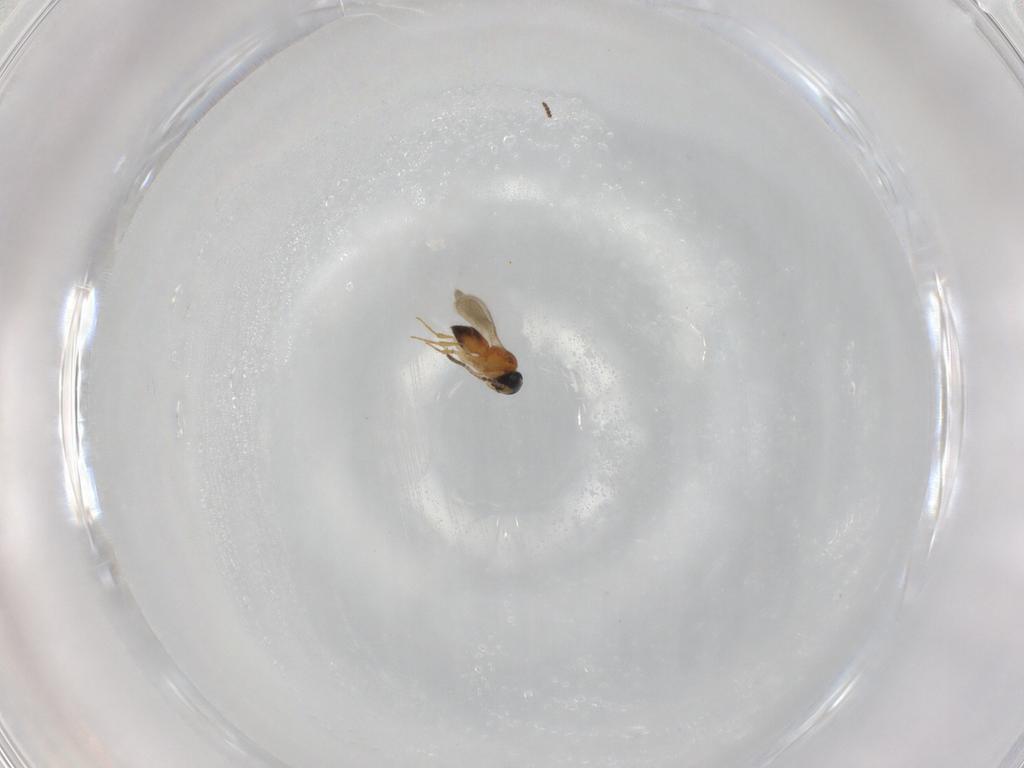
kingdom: Animalia
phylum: Arthropoda
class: Insecta
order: Hymenoptera
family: Scelionidae
